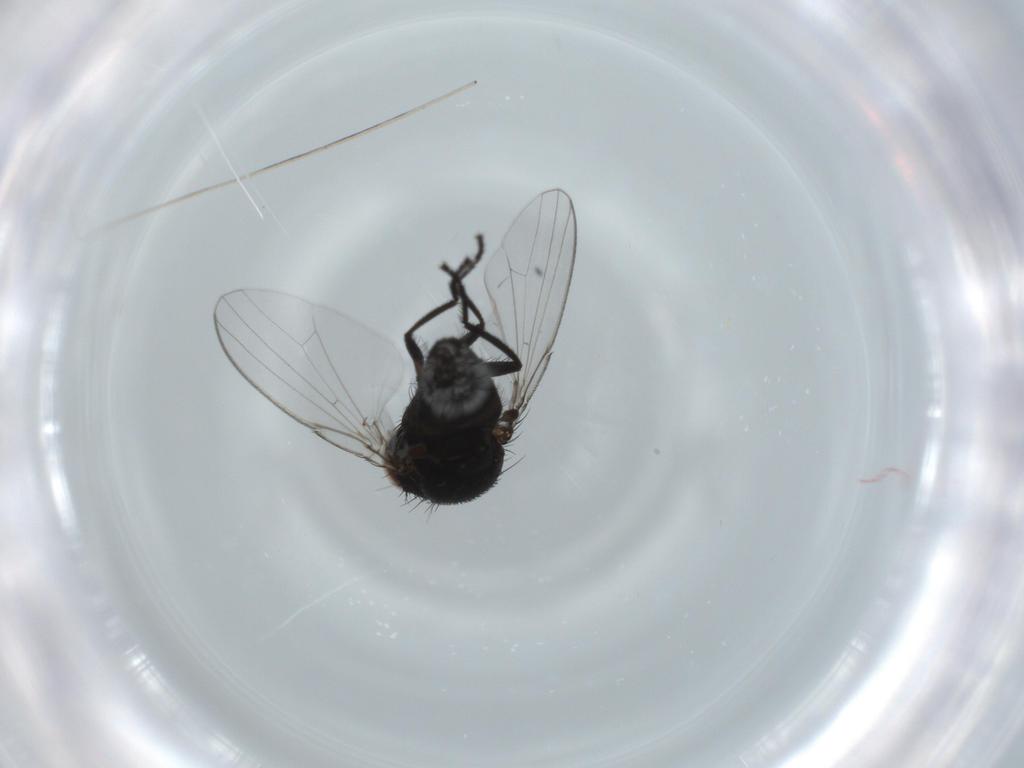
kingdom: Animalia
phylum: Arthropoda
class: Insecta
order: Diptera
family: Milichiidae
